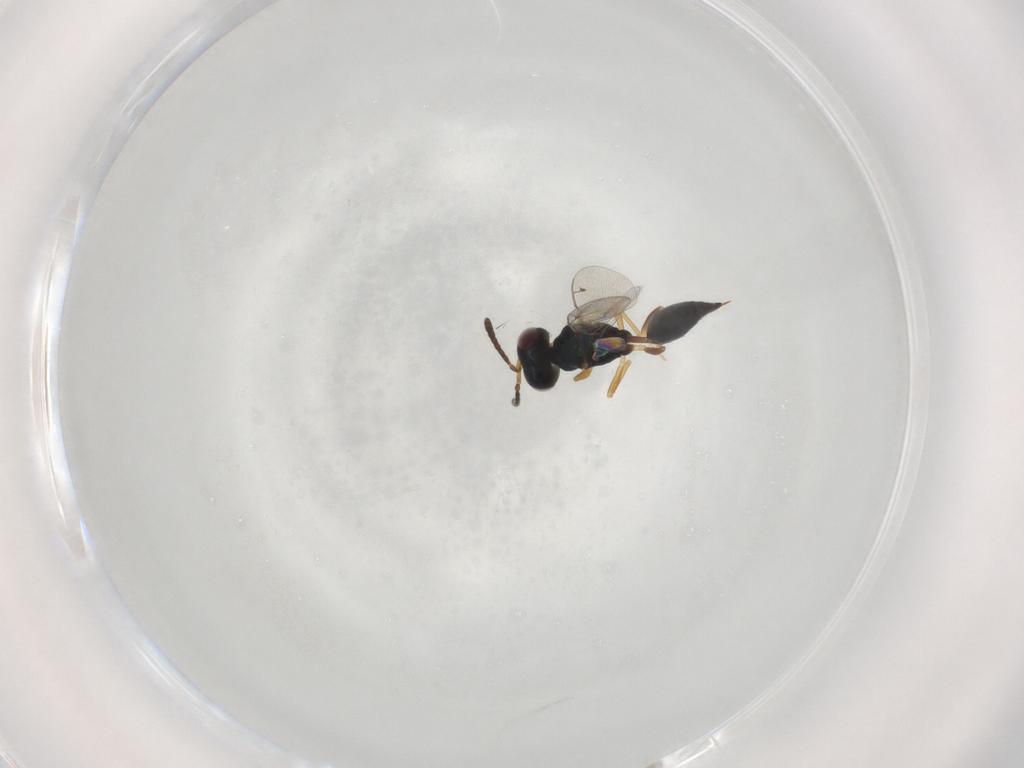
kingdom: Animalia
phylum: Arthropoda
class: Insecta
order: Hymenoptera
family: Pteromalidae
